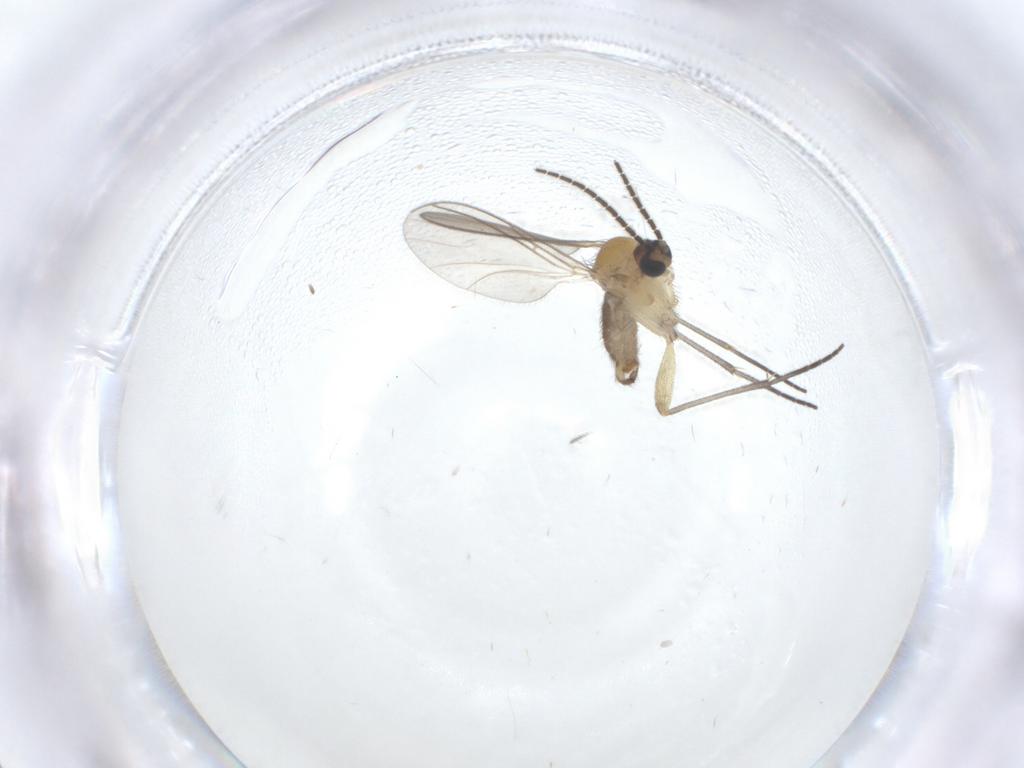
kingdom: Animalia
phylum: Arthropoda
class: Insecta
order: Diptera
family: Sciaridae
